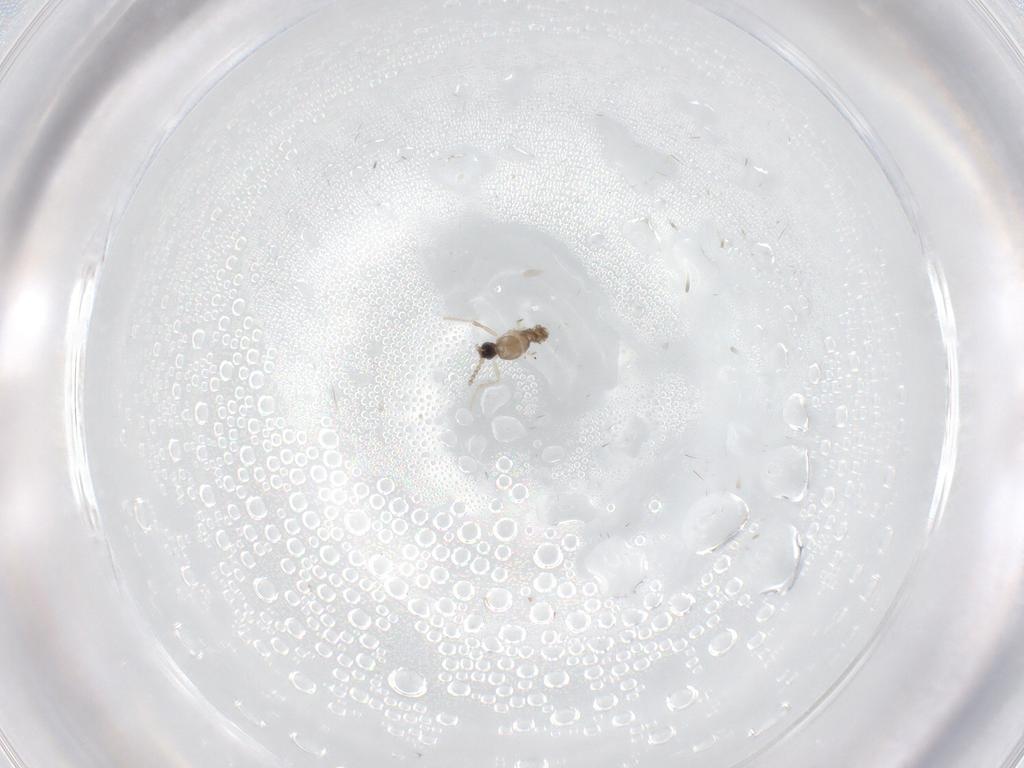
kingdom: Animalia
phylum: Arthropoda
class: Insecta
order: Diptera
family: Cecidomyiidae
